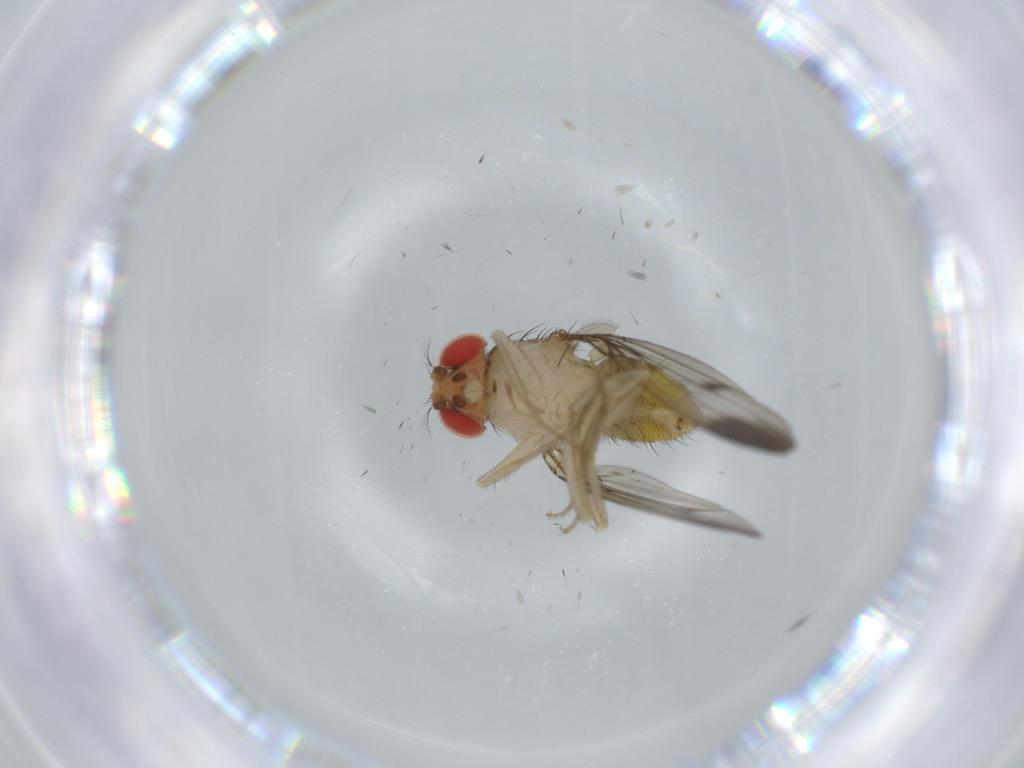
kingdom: Animalia
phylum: Arthropoda
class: Insecta
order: Diptera
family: Drosophilidae
